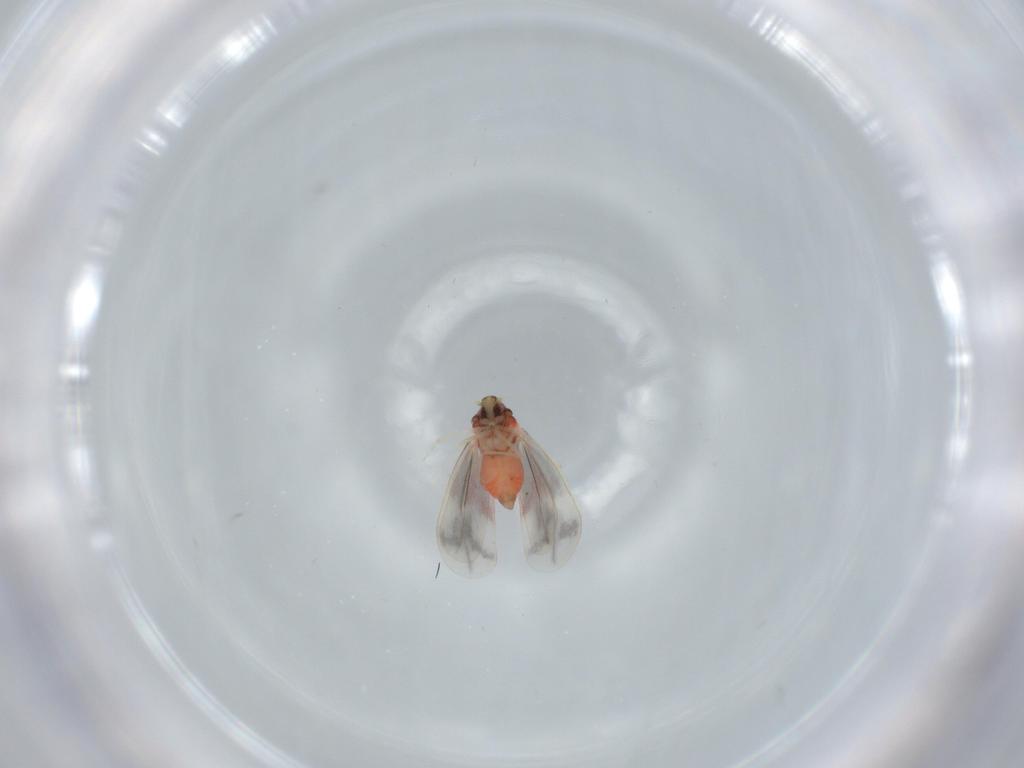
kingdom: Animalia
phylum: Arthropoda
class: Insecta
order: Hemiptera
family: Aleyrodidae
